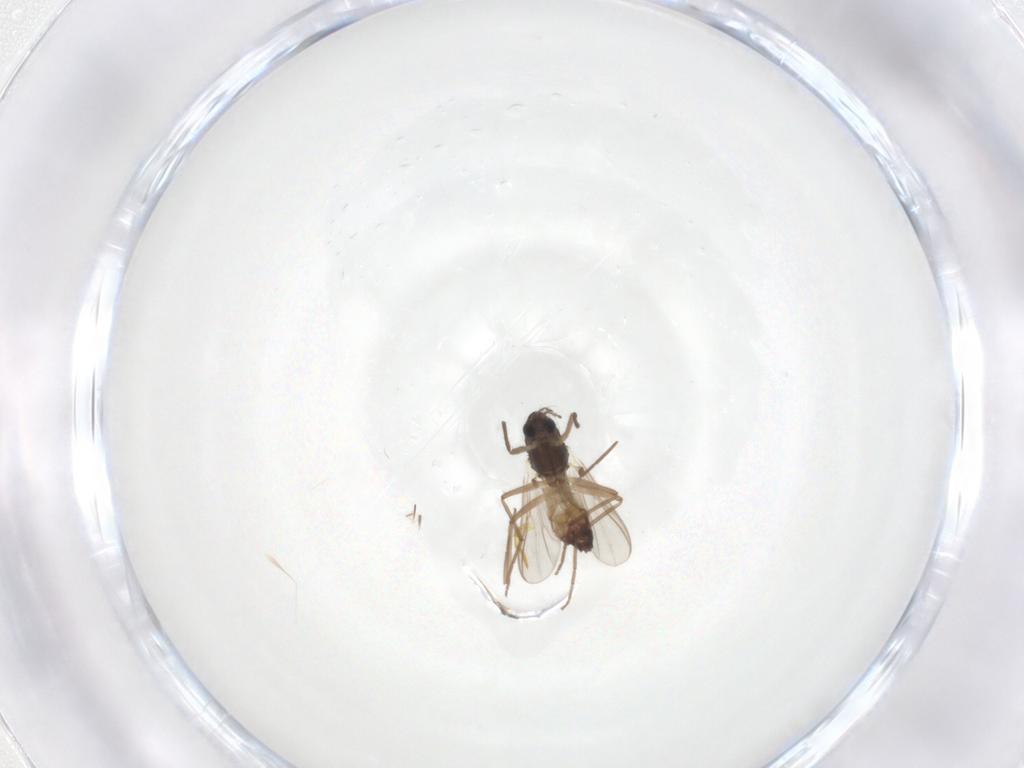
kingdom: Animalia
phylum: Arthropoda
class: Insecta
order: Diptera
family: Chironomidae
